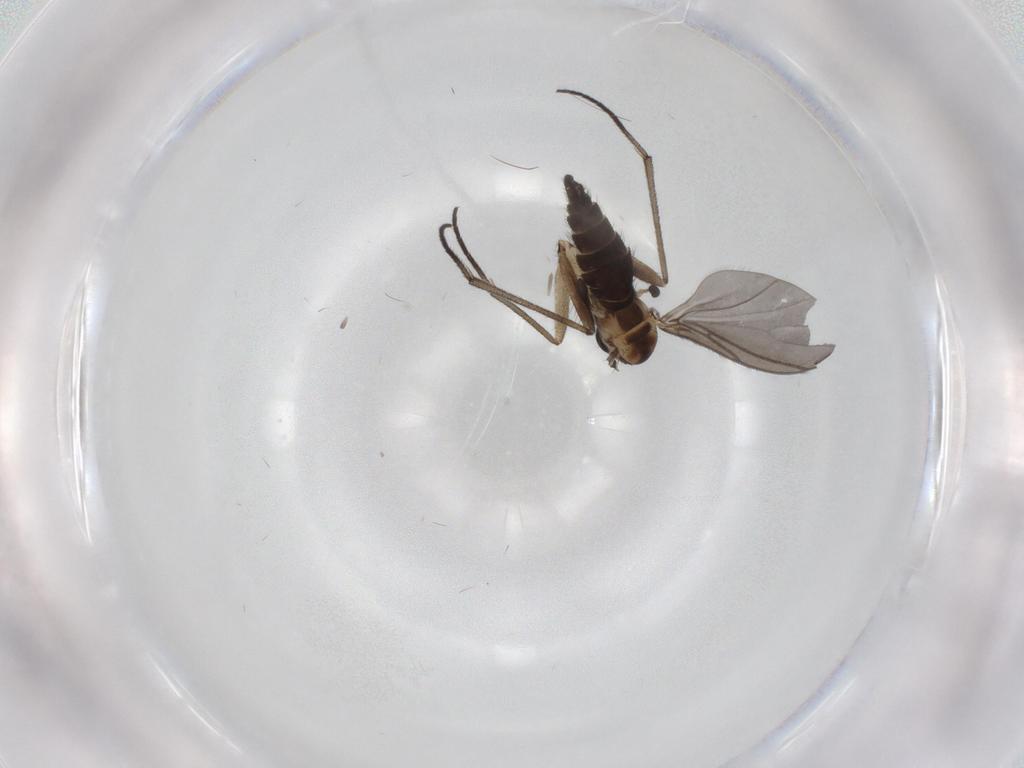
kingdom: Animalia
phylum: Arthropoda
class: Insecta
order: Diptera
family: Sciaridae
